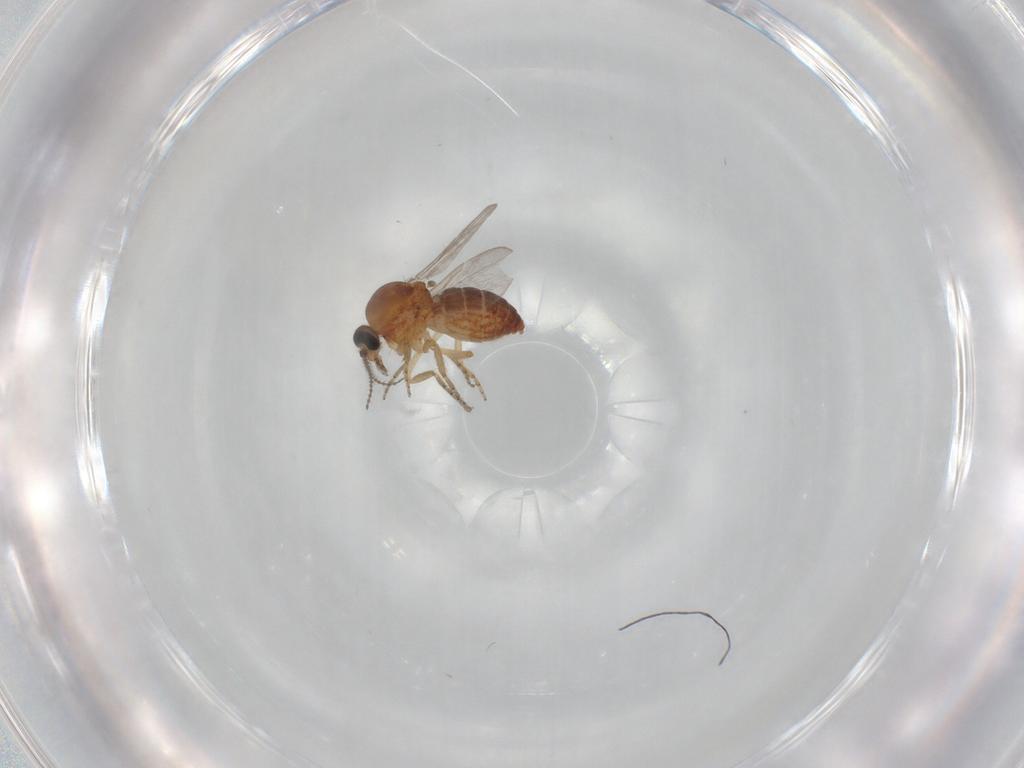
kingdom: Animalia
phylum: Arthropoda
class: Insecta
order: Diptera
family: Ceratopogonidae
